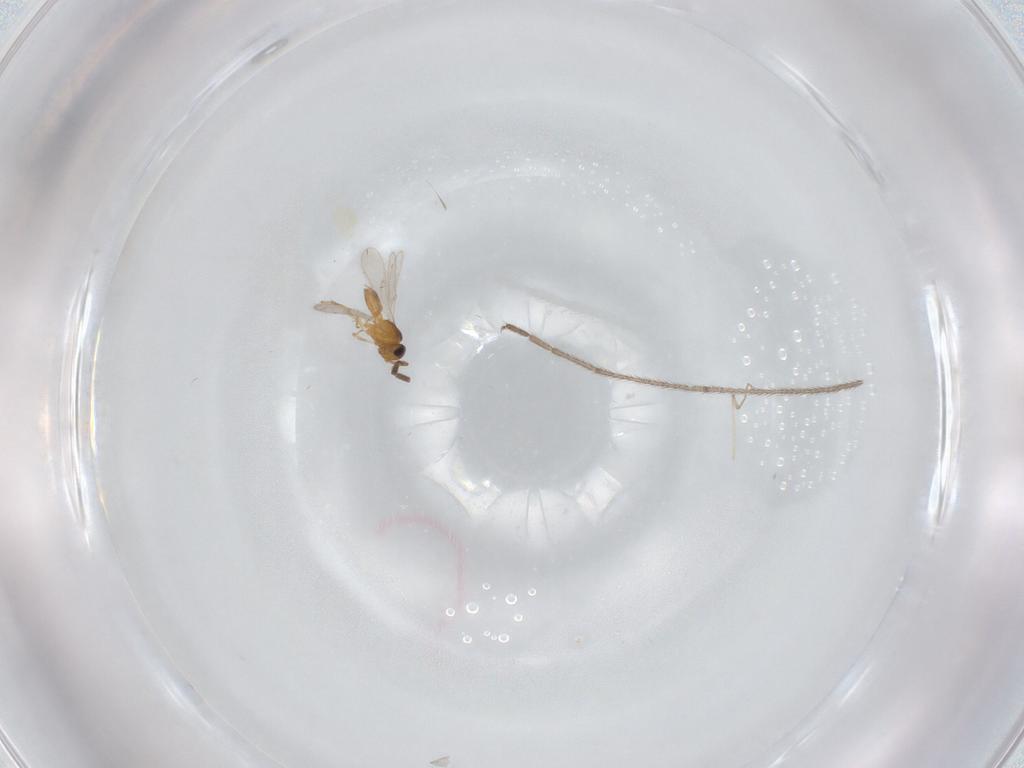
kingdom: Animalia
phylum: Arthropoda
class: Insecta
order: Hymenoptera
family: Scelionidae
